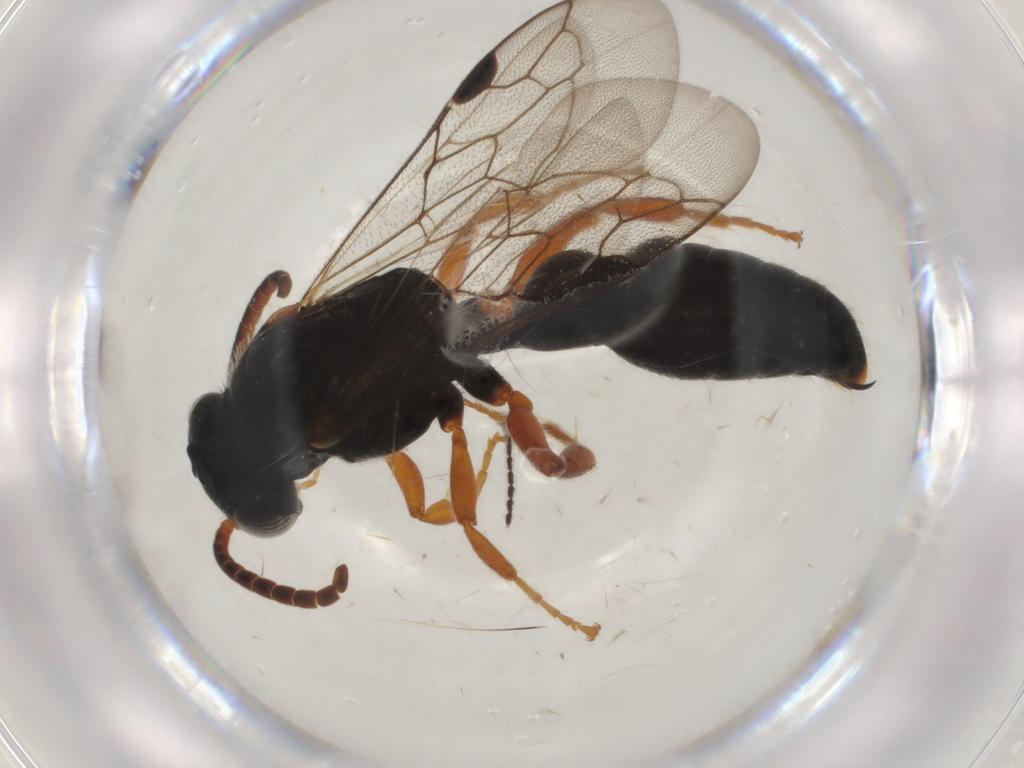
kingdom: Animalia
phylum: Arthropoda
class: Insecta
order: Hymenoptera
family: Tiphiidae
